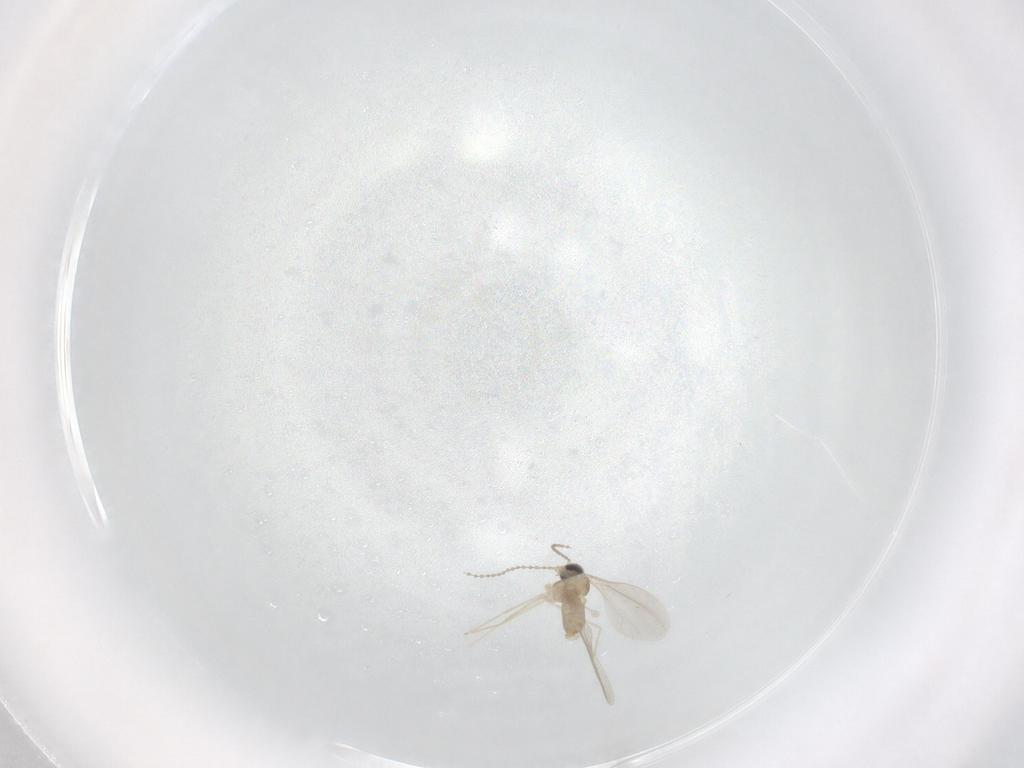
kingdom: Animalia
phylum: Arthropoda
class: Insecta
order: Diptera
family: Cecidomyiidae
